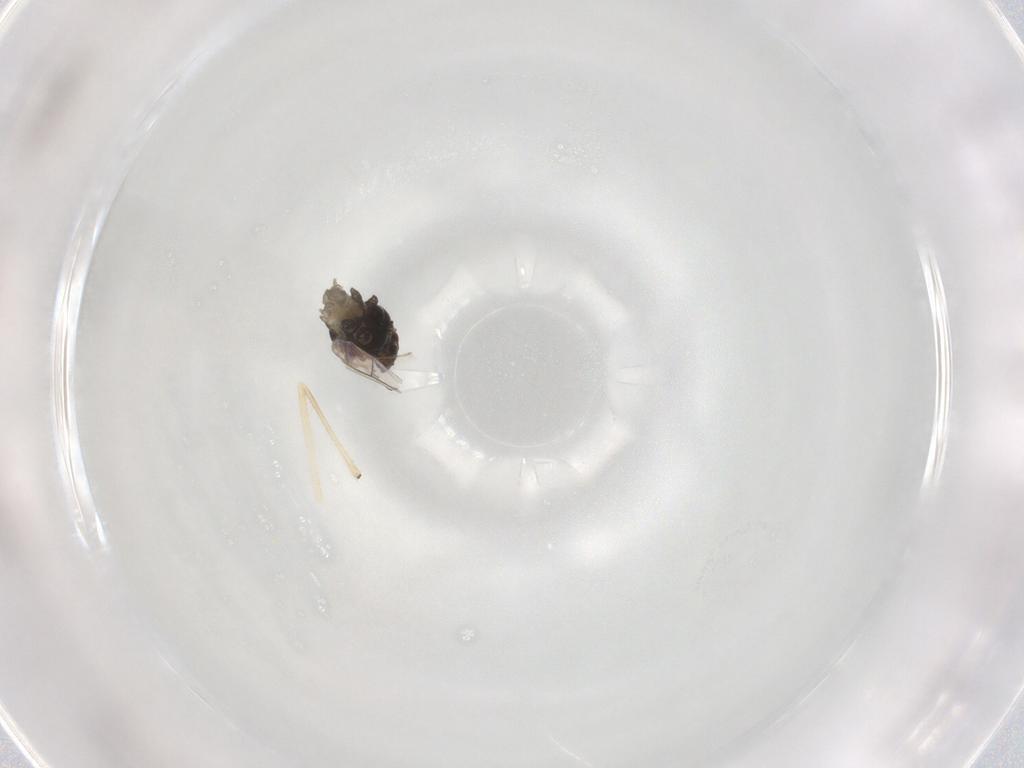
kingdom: Animalia
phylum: Arthropoda
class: Insecta
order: Hemiptera
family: Aphididae
